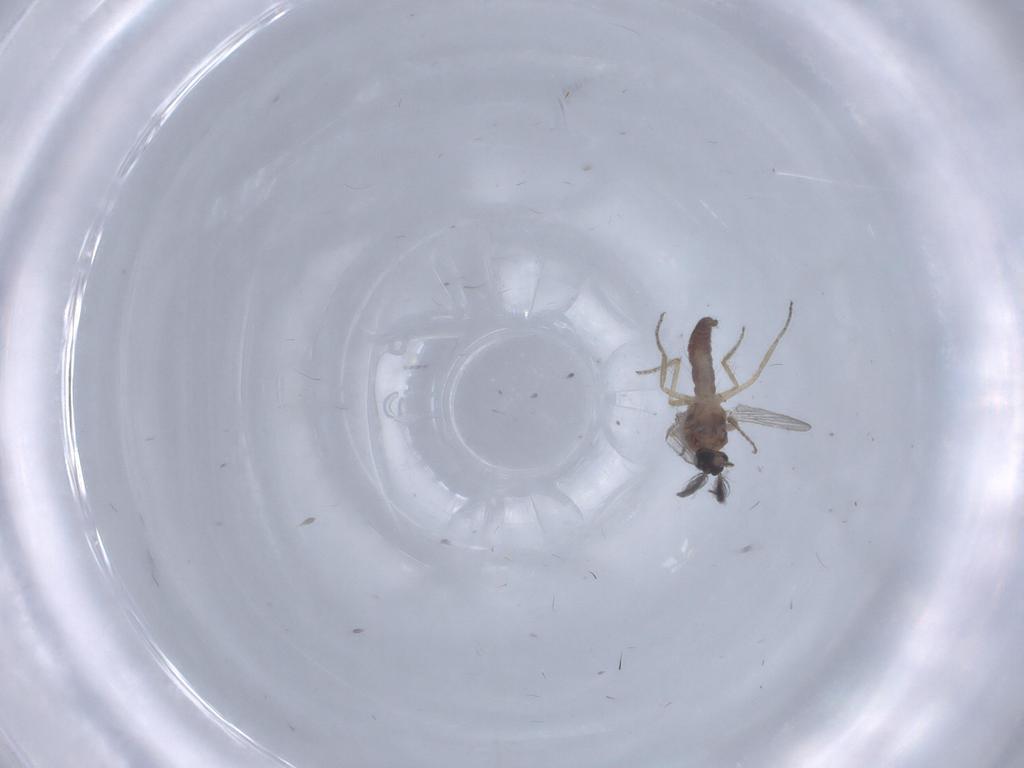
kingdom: Animalia
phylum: Arthropoda
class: Insecta
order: Diptera
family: Ceratopogonidae
